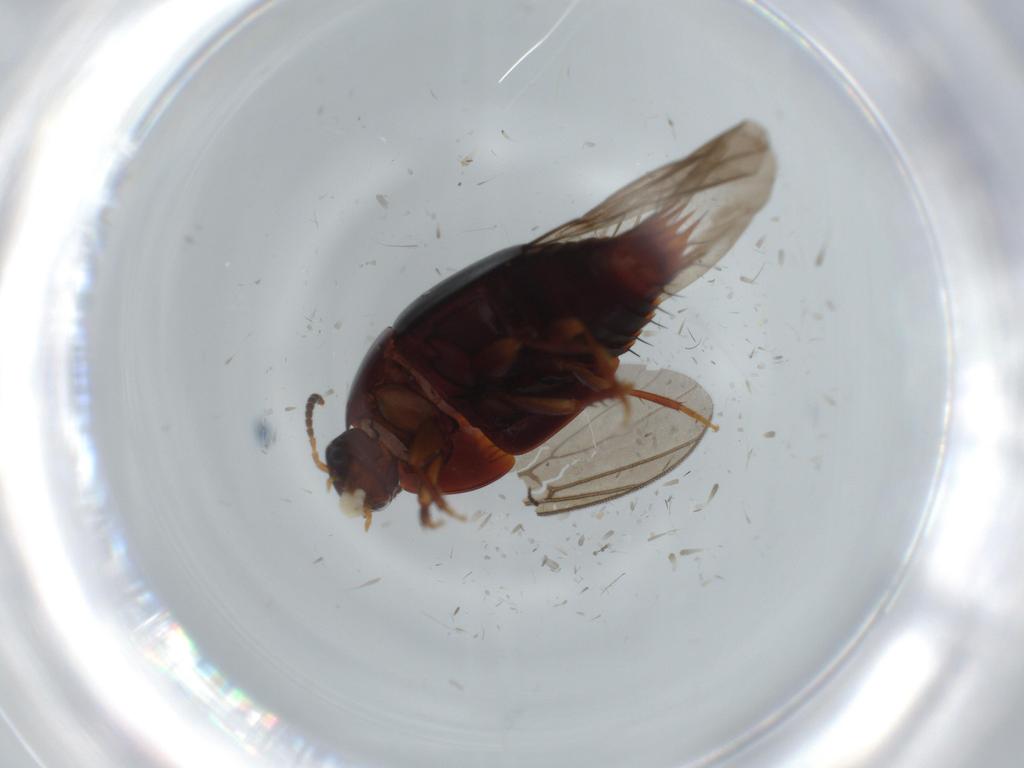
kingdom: Animalia
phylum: Arthropoda
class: Insecta
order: Coleoptera
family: Staphylinidae
